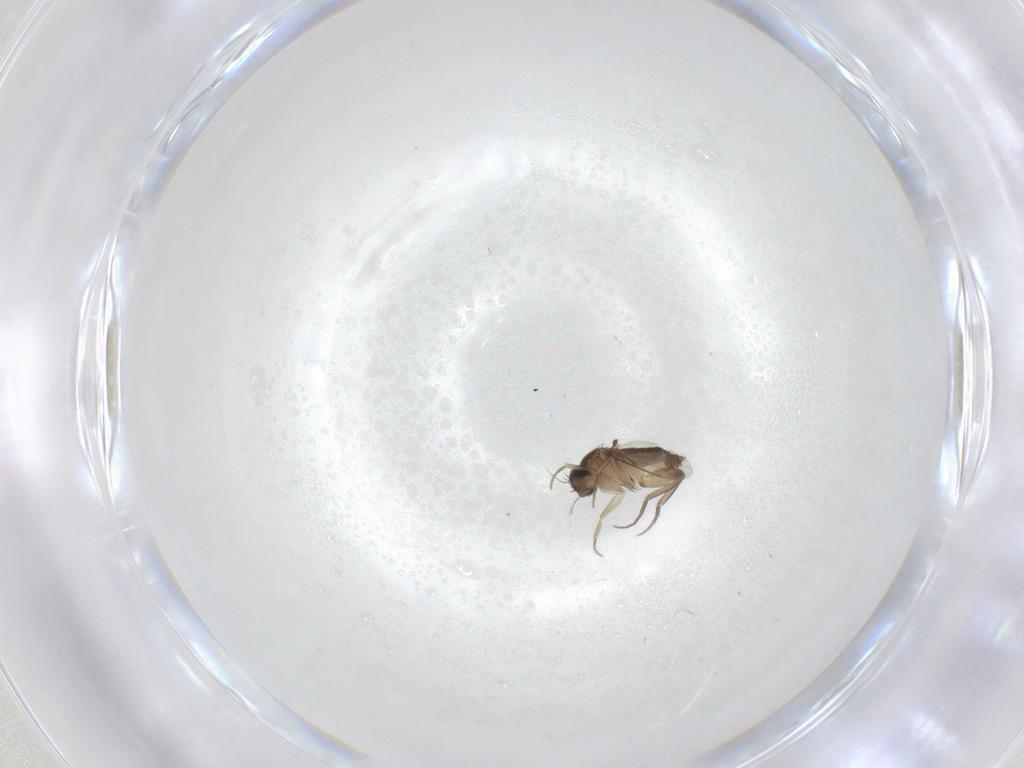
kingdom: Animalia
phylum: Arthropoda
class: Insecta
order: Diptera
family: Phoridae
